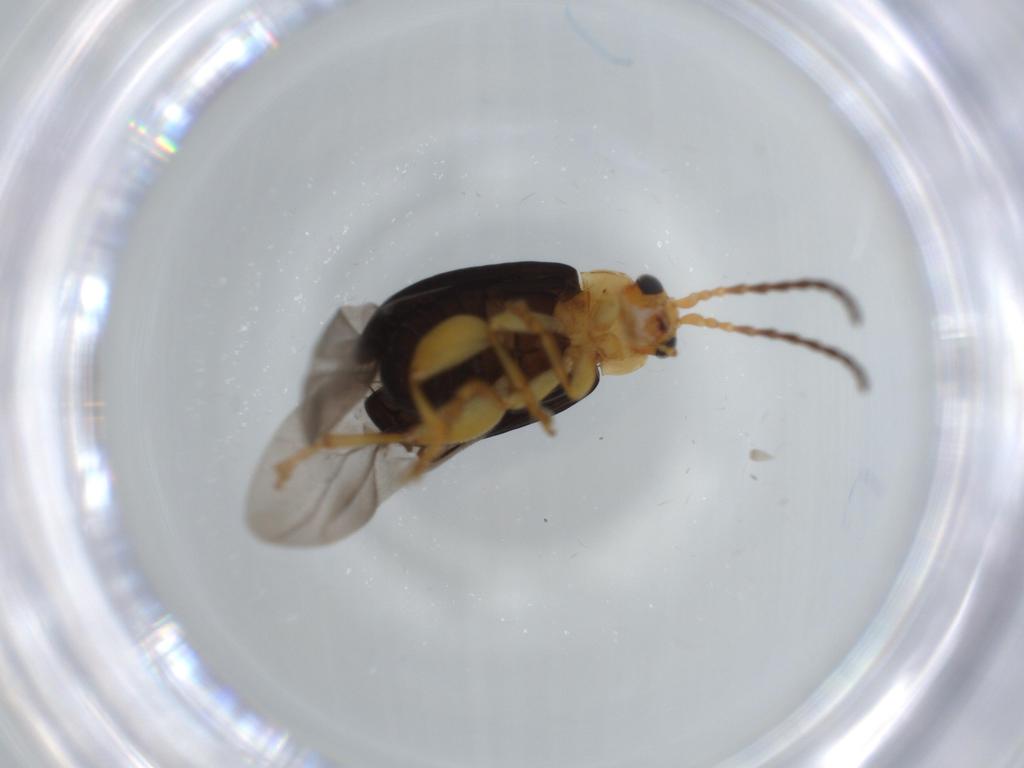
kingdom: Animalia
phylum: Arthropoda
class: Insecta
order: Coleoptera
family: Chrysomelidae
